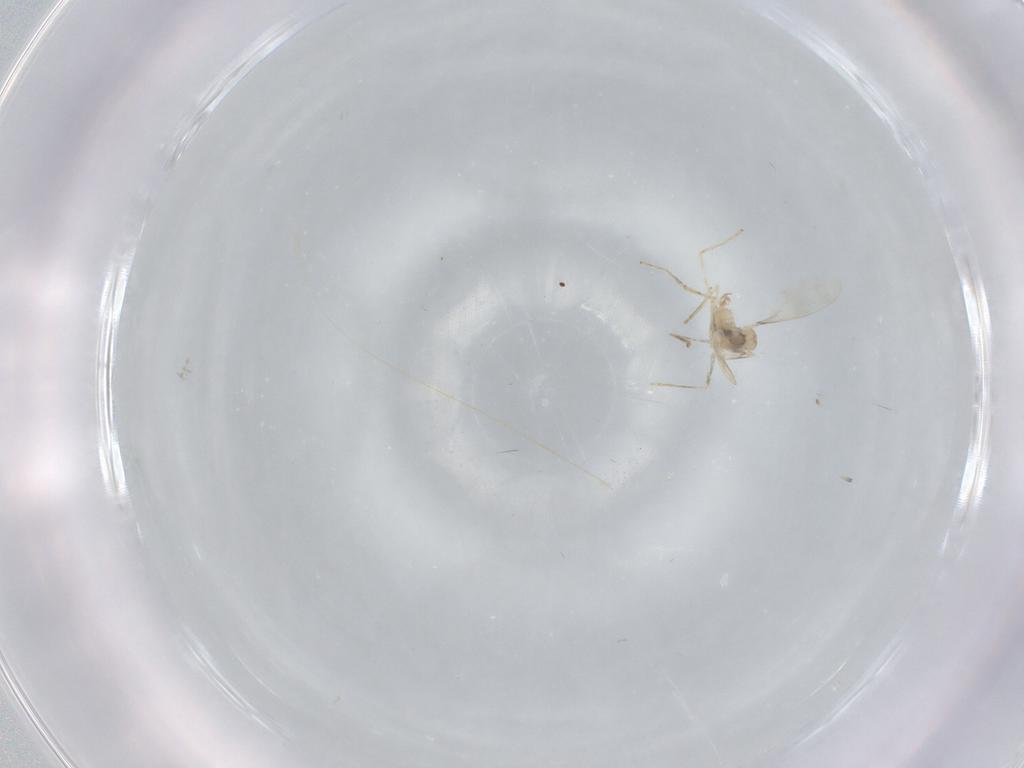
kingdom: Animalia
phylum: Arthropoda
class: Insecta
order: Diptera
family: Cecidomyiidae
